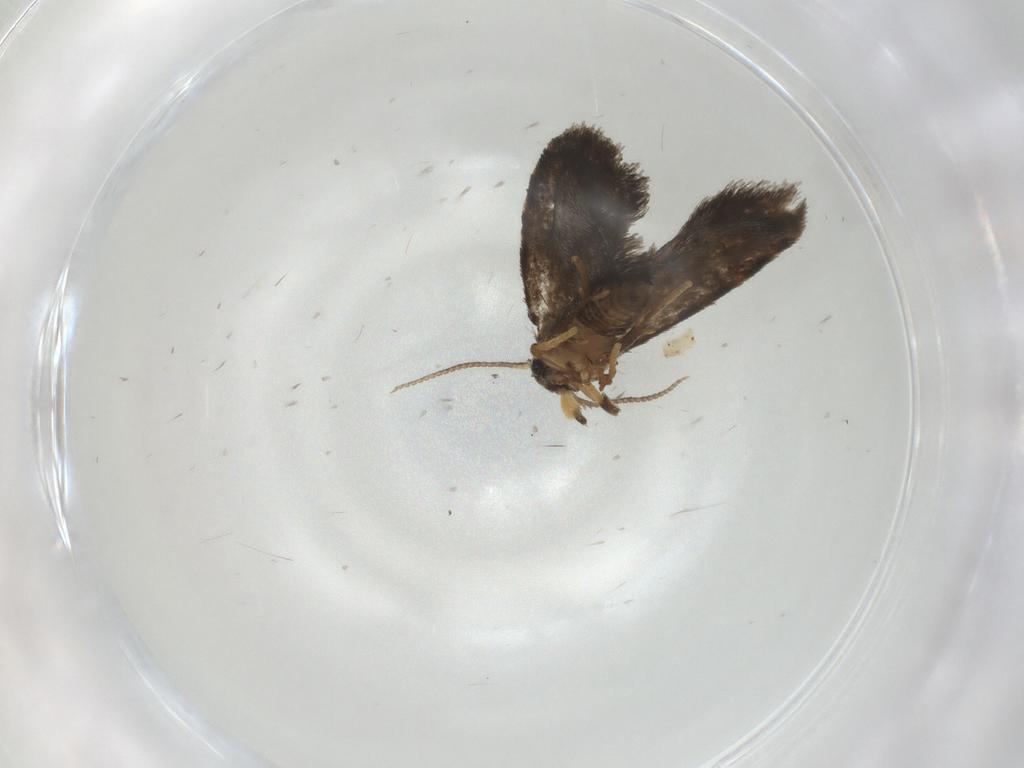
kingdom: Animalia
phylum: Arthropoda
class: Insecta
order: Lepidoptera
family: Psychidae
